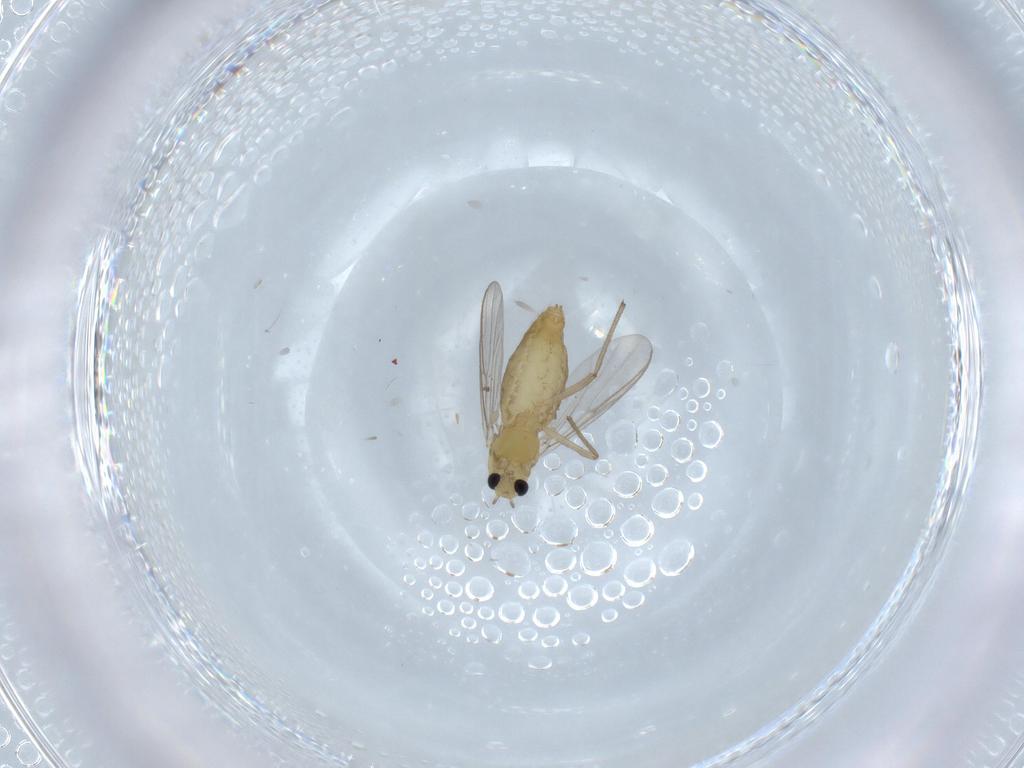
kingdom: Animalia
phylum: Arthropoda
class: Insecta
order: Diptera
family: Chironomidae
